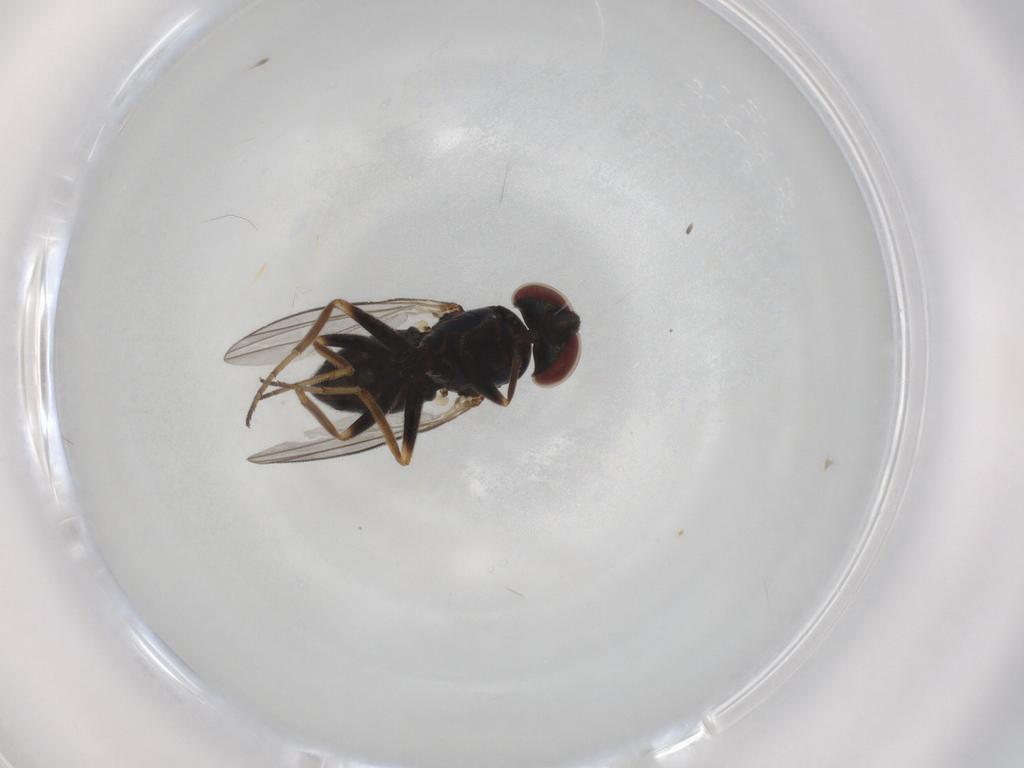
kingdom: Animalia
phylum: Arthropoda
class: Insecta
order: Diptera
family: Dolichopodidae
